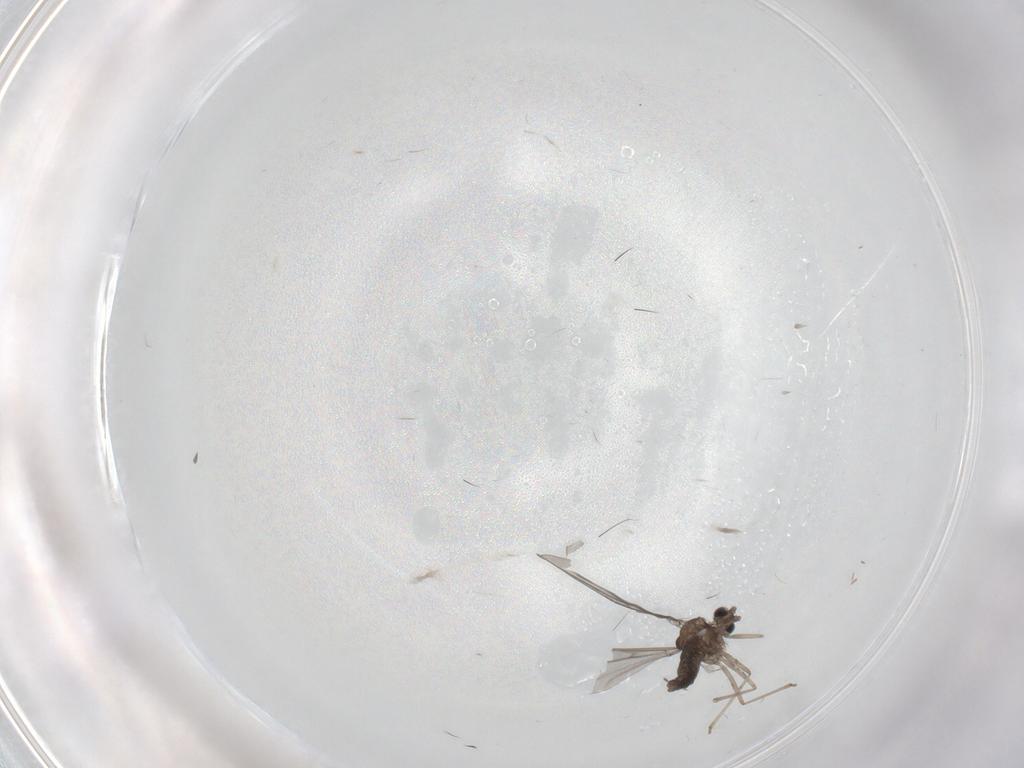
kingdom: Animalia
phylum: Arthropoda
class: Insecta
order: Diptera
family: Cecidomyiidae
